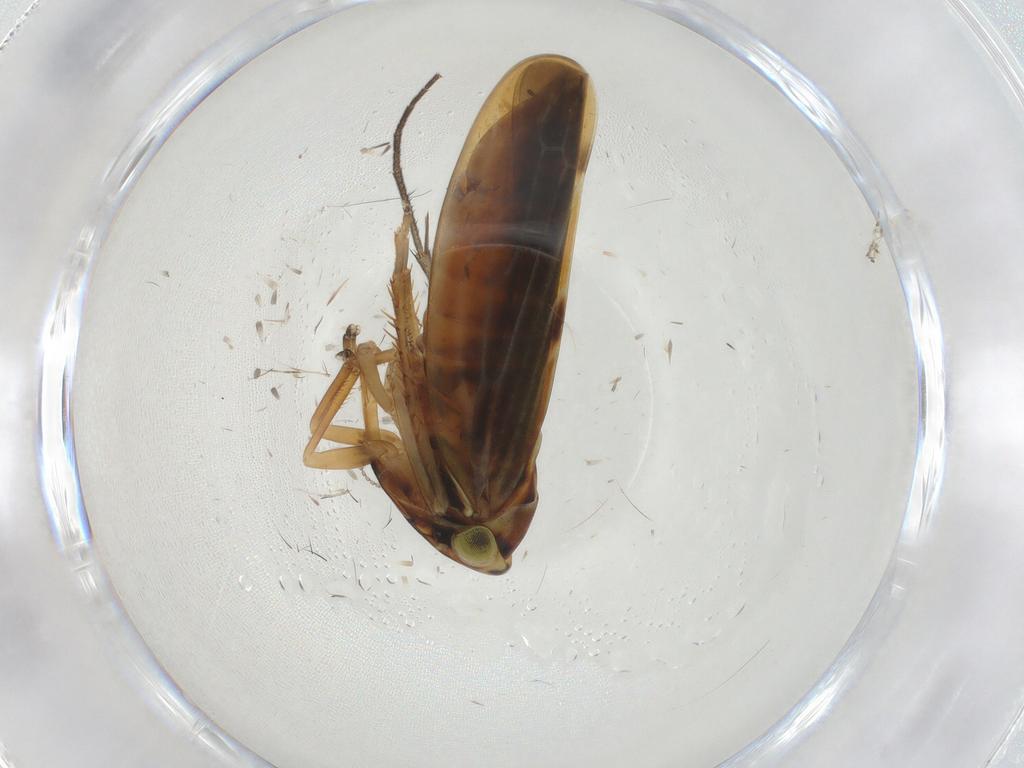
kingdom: Animalia
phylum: Arthropoda
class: Insecta
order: Hemiptera
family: Cicadellidae
